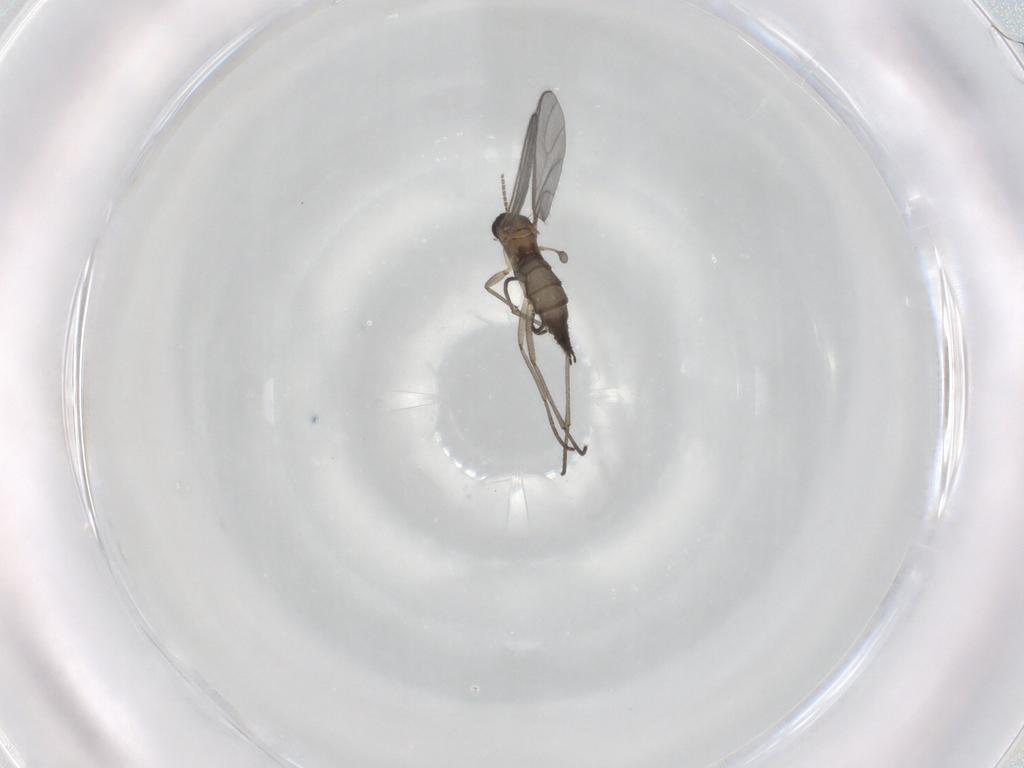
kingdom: Animalia
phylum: Arthropoda
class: Insecta
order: Diptera
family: Sciaridae
